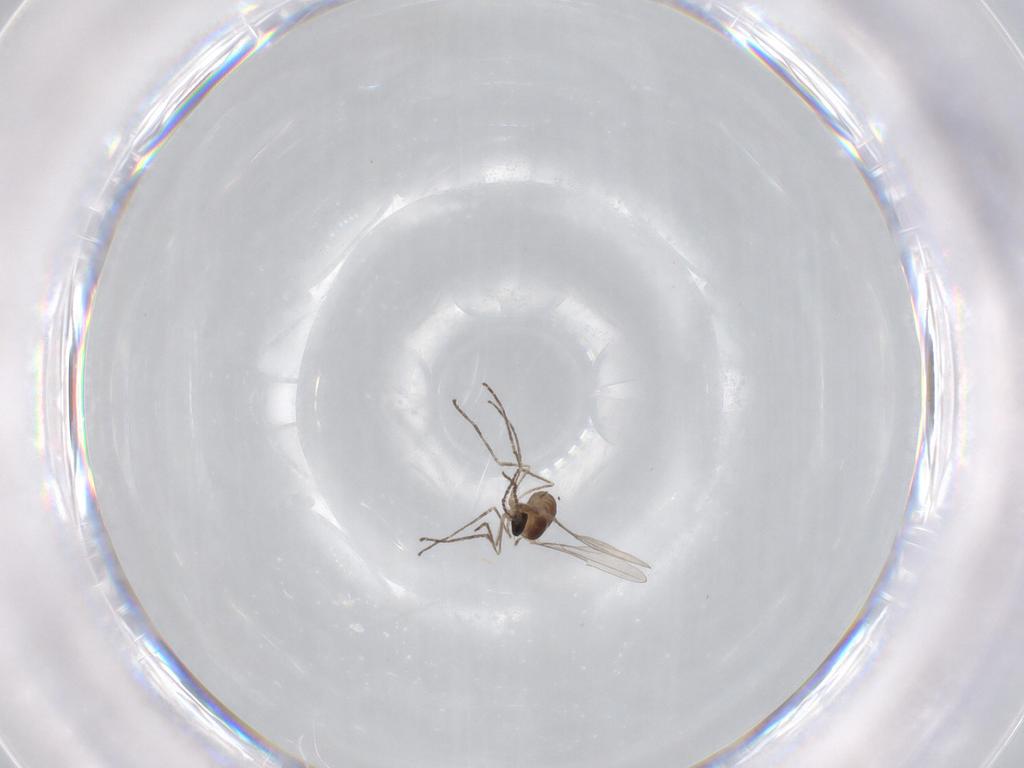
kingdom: Animalia
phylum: Arthropoda
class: Insecta
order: Diptera
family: Cecidomyiidae
